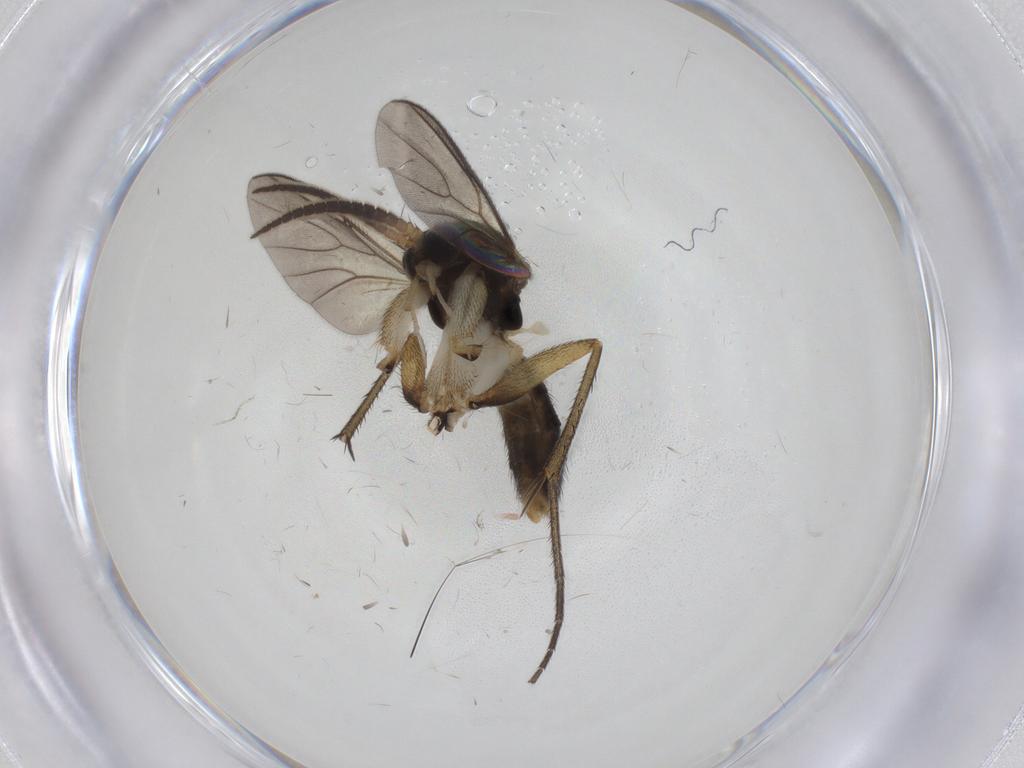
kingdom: Animalia
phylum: Arthropoda
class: Insecta
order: Diptera
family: Mycetophilidae
